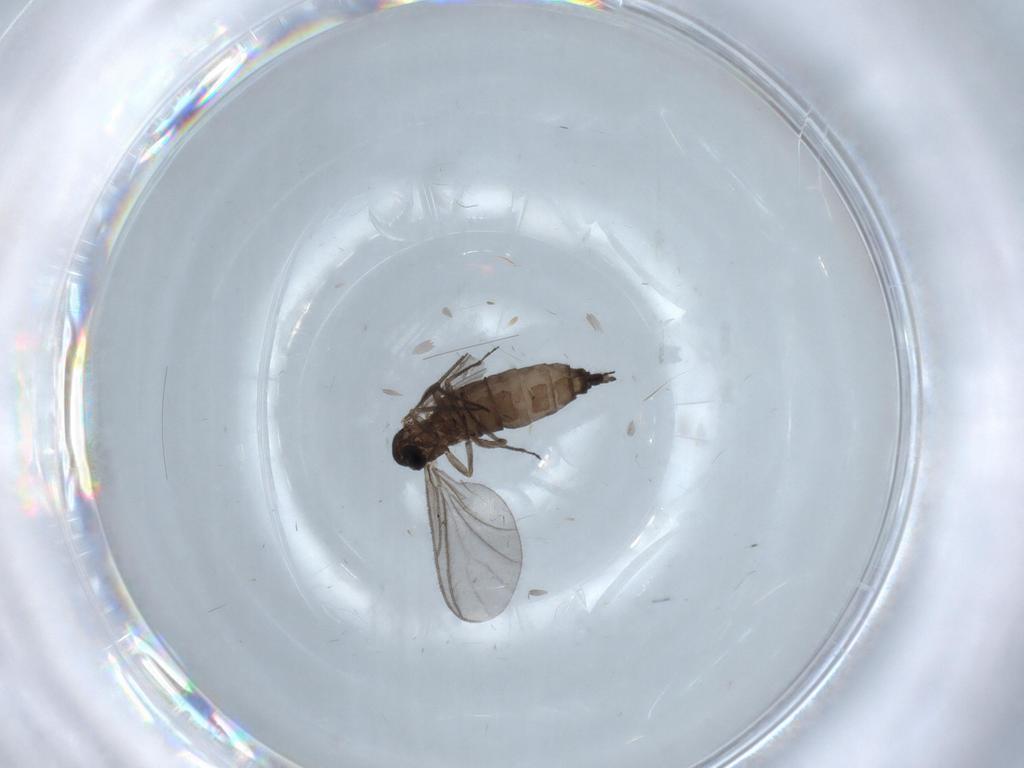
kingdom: Animalia
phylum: Arthropoda
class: Insecta
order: Diptera
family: Sciaridae
